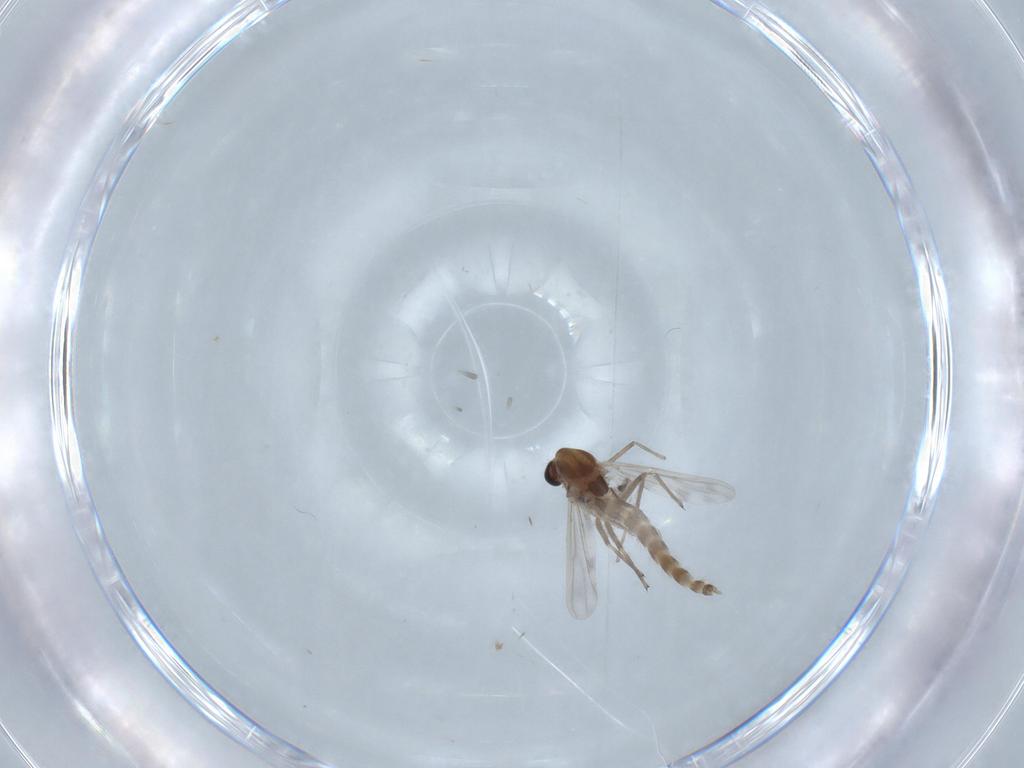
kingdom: Animalia
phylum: Arthropoda
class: Insecta
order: Diptera
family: Chironomidae
